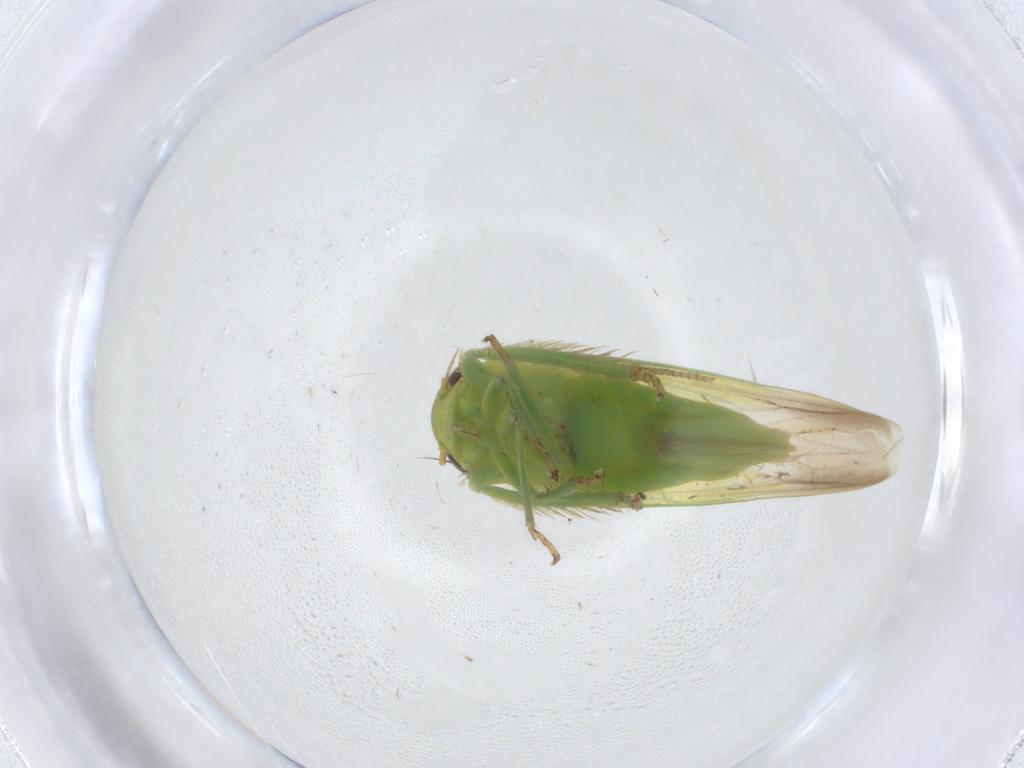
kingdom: Animalia
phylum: Arthropoda
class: Insecta
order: Hemiptera
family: Cicadellidae
